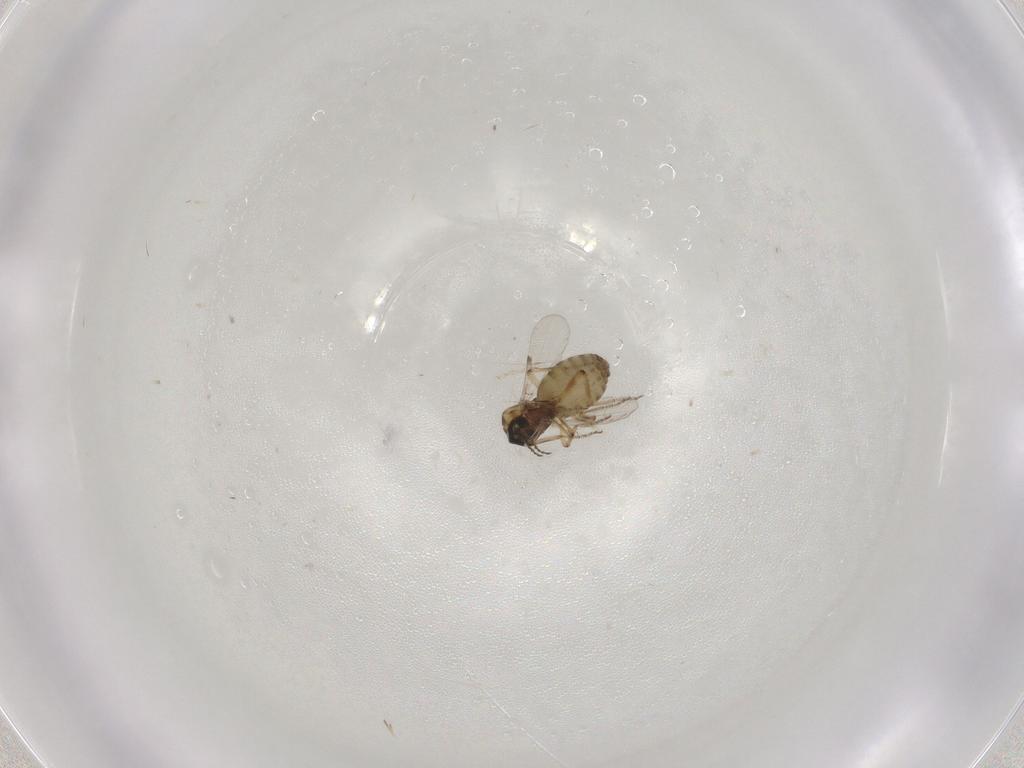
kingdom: Animalia
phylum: Arthropoda
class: Insecta
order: Diptera
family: Ceratopogonidae
